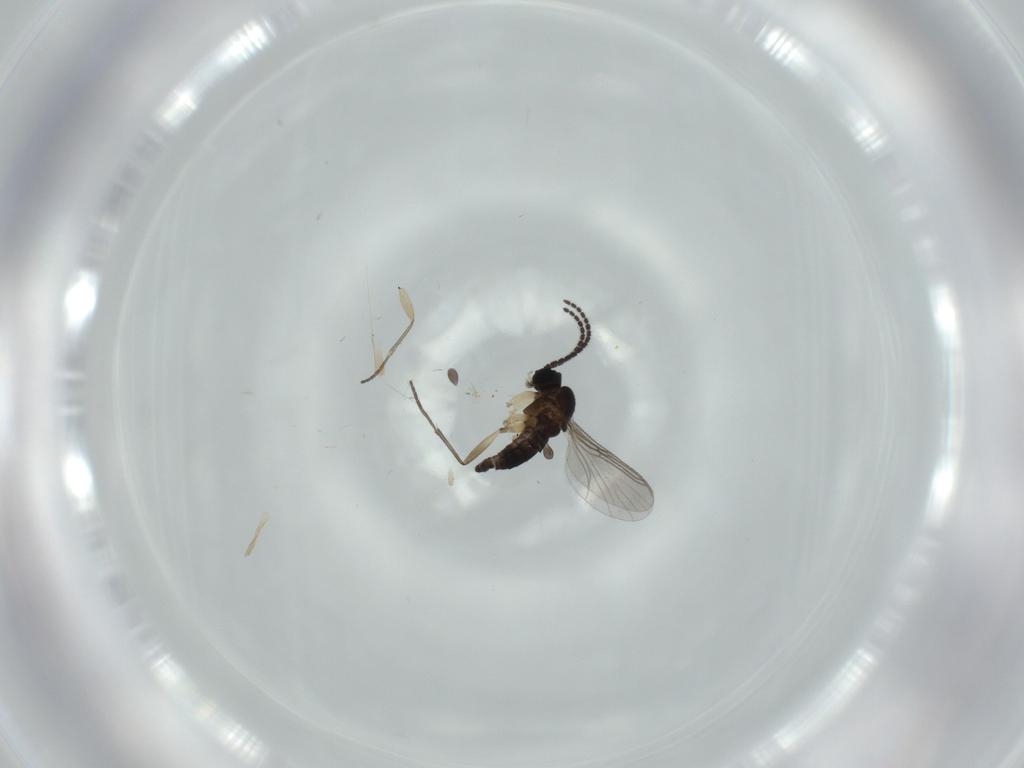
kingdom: Animalia
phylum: Arthropoda
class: Insecta
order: Diptera
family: Sciaridae
